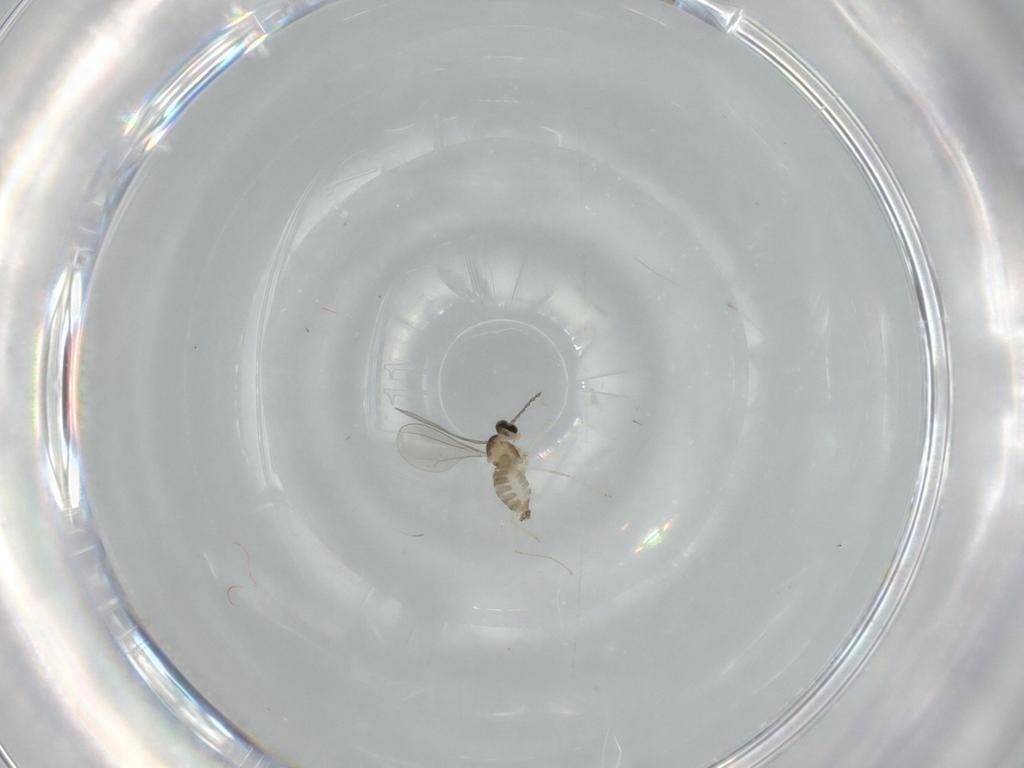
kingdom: Animalia
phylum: Arthropoda
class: Insecta
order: Diptera
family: Cecidomyiidae
